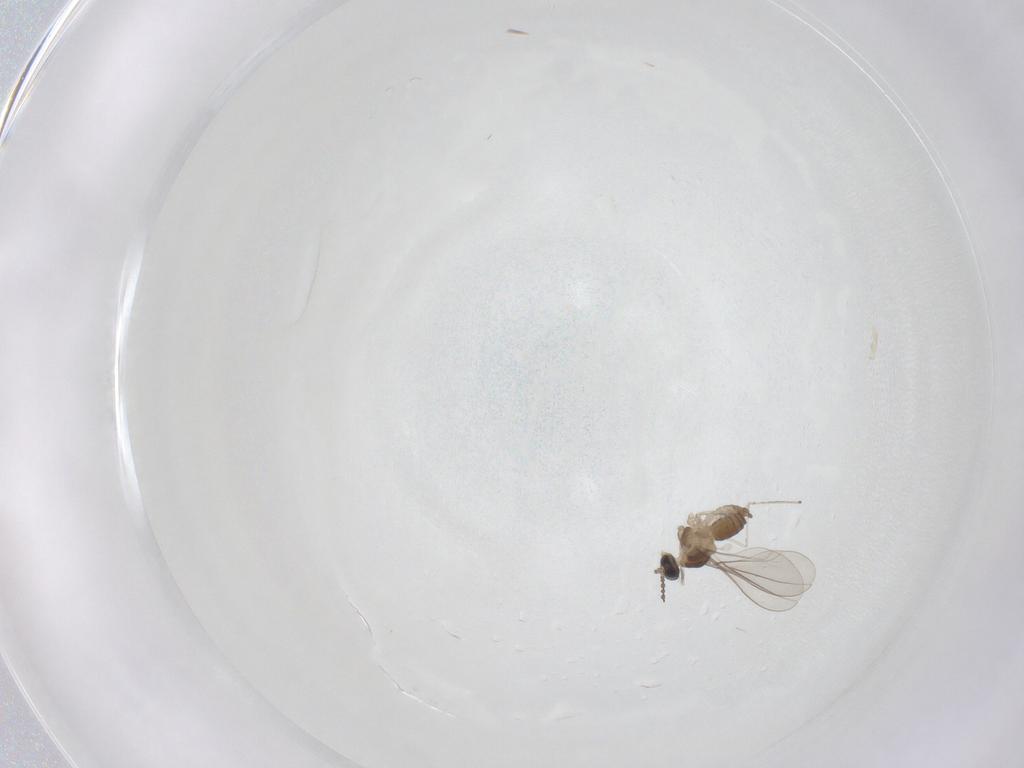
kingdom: Animalia
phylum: Arthropoda
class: Insecta
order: Diptera
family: Cecidomyiidae
